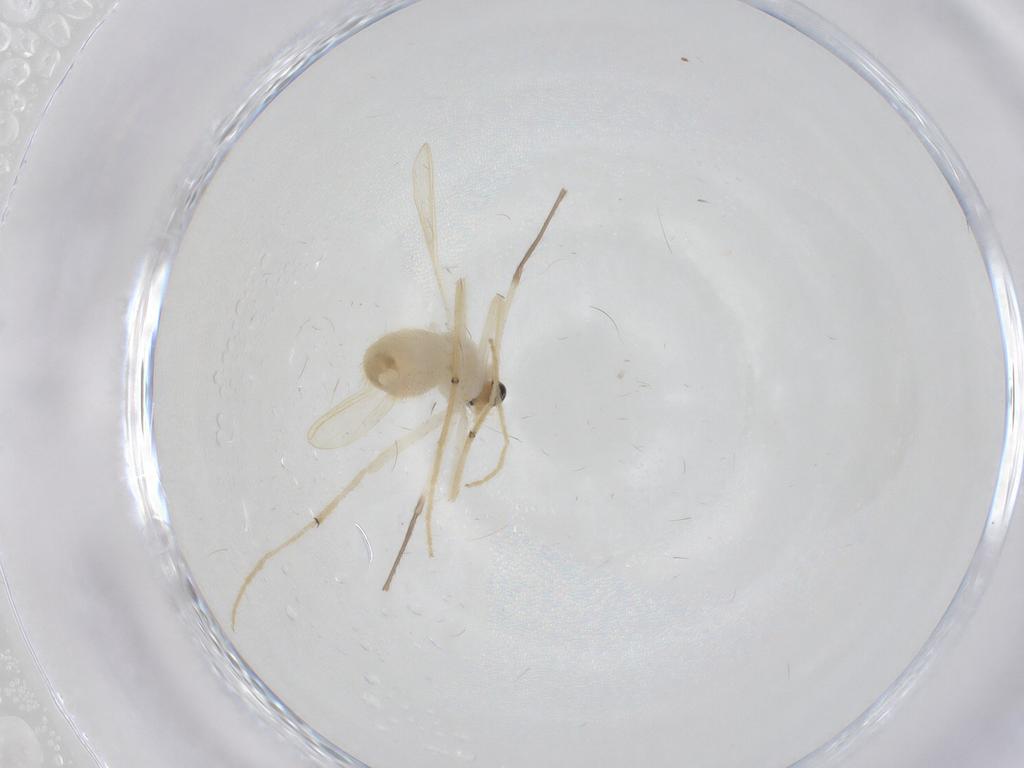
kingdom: Animalia
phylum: Arthropoda
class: Insecta
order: Diptera
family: Chironomidae
